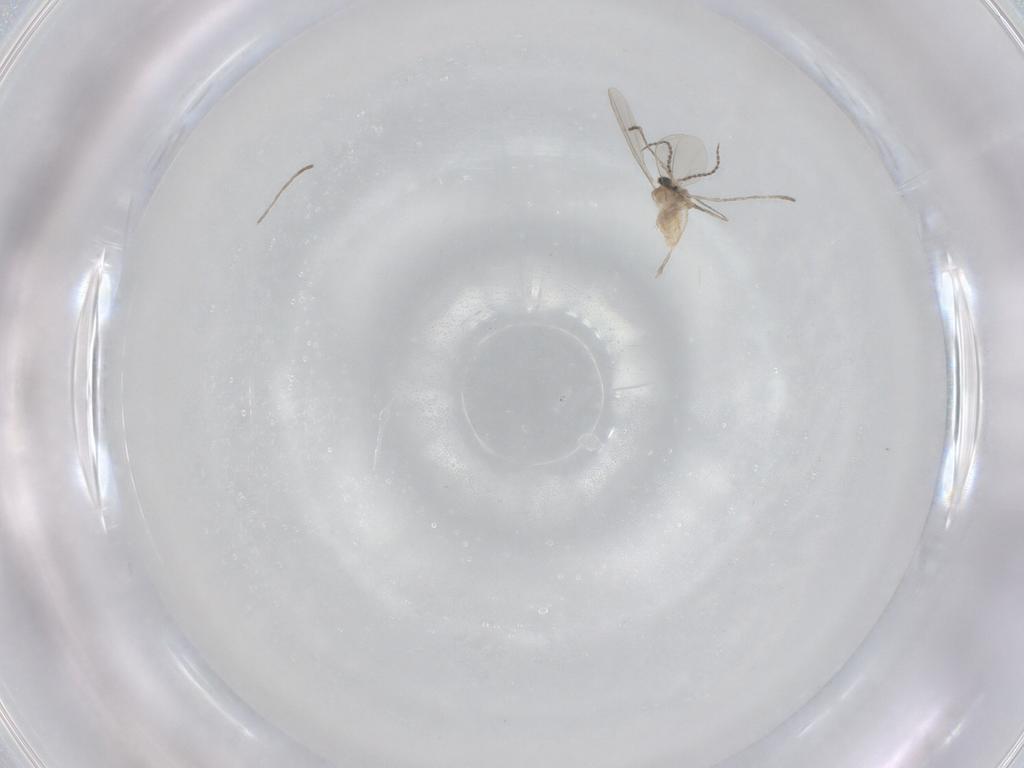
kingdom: Animalia
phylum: Arthropoda
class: Insecta
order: Diptera
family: Cecidomyiidae
